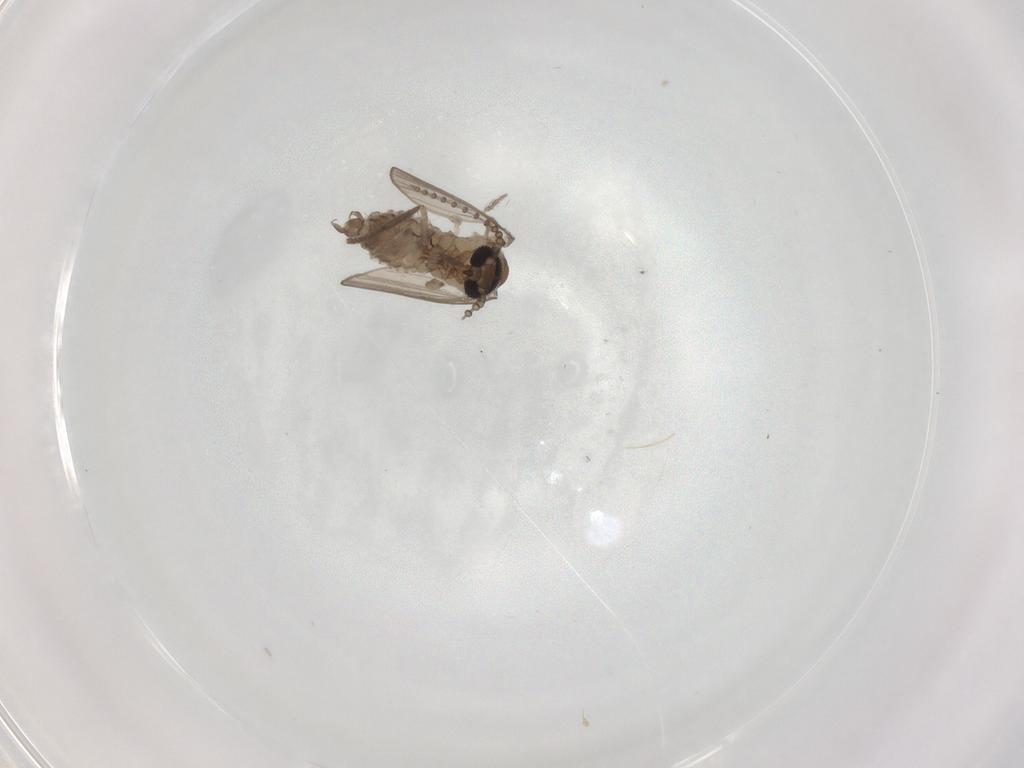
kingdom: Animalia
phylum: Arthropoda
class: Insecta
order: Diptera
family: Psychodidae
